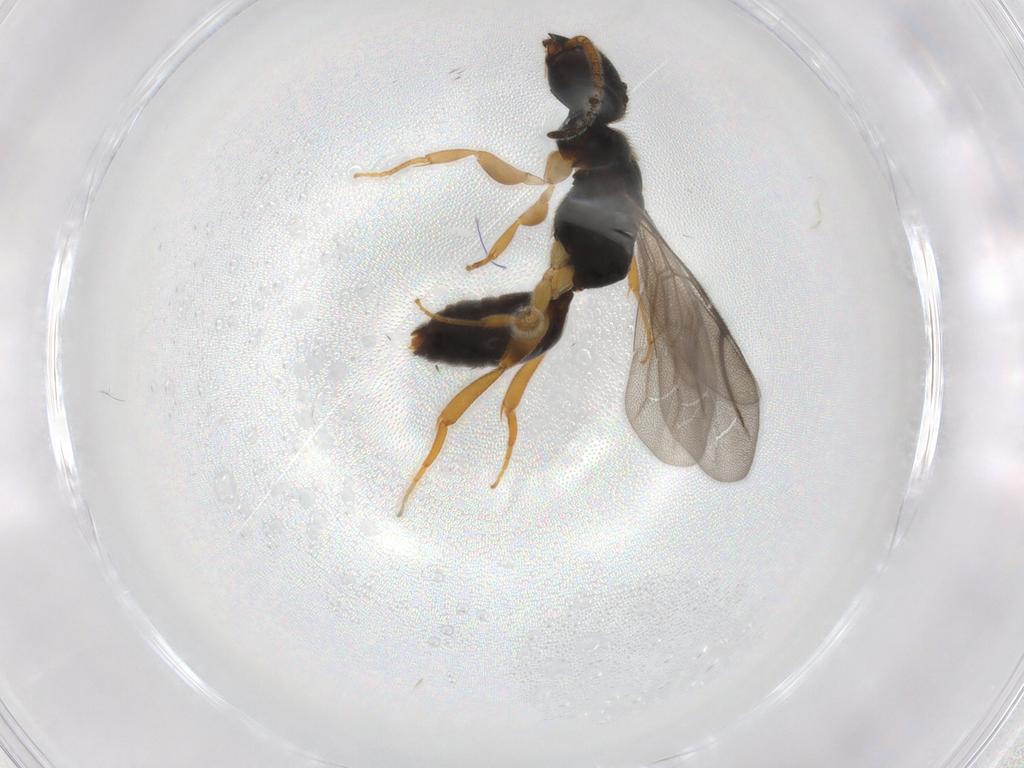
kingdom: Animalia
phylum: Arthropoda
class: Insecta
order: Hymenoptera
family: Bethylidae
